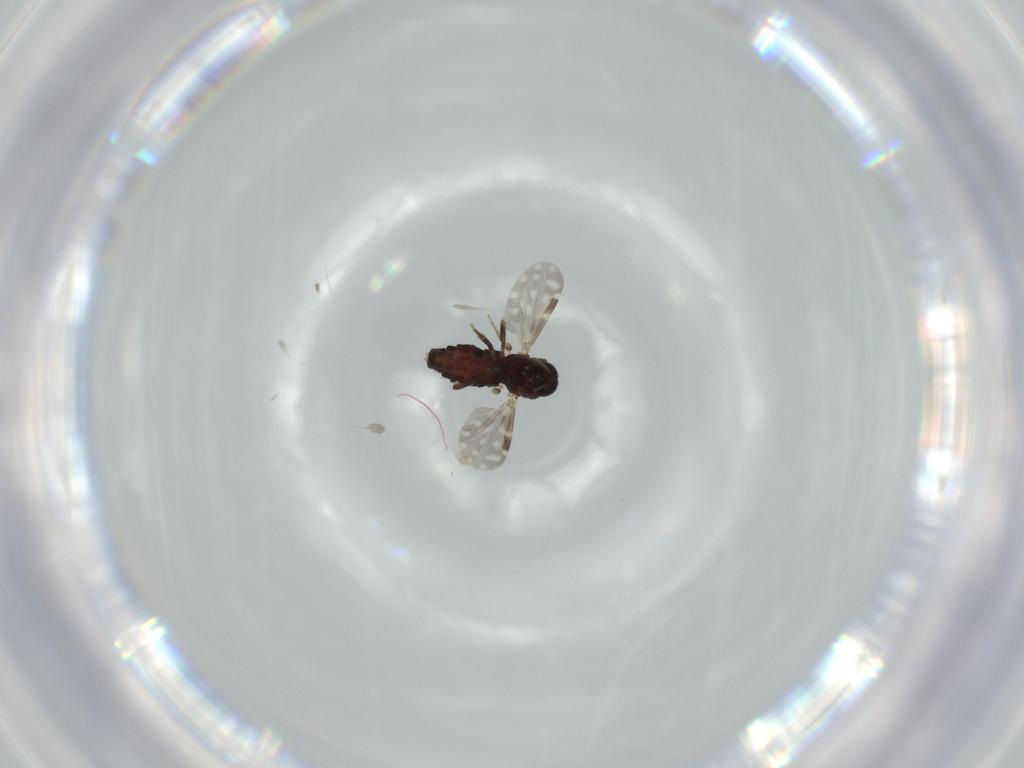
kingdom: Animalia
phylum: Arthropoda
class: Insecta
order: Diptera
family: Ceratopogonidae
